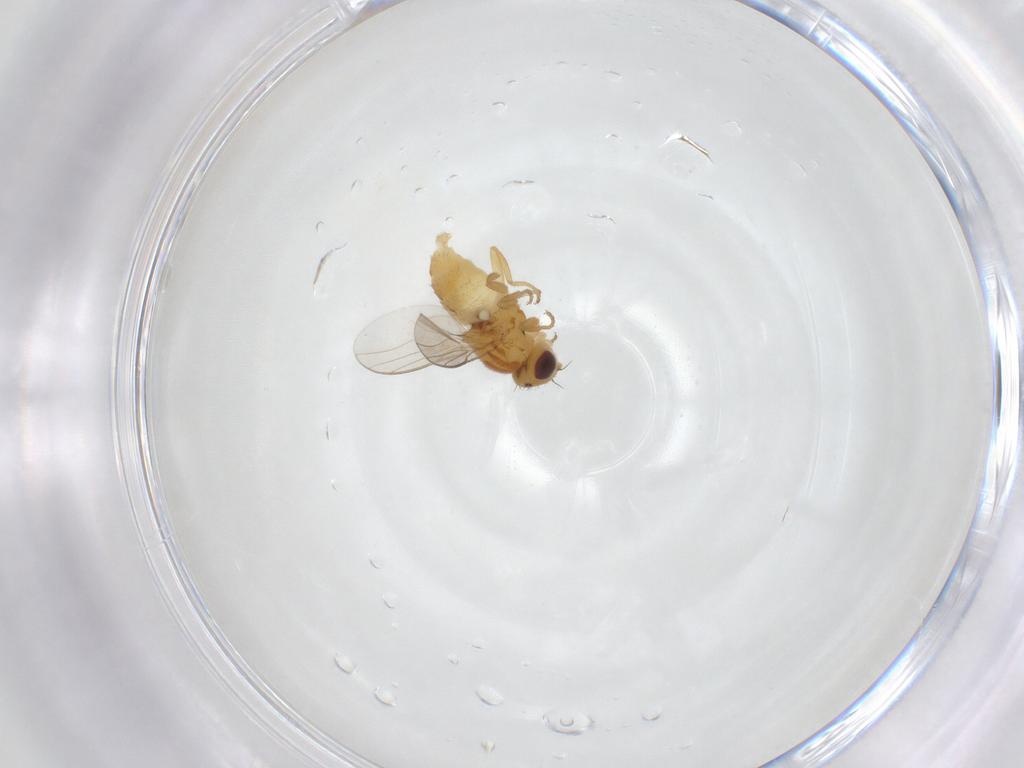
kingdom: Animalia
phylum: Arthropoda
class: Insecta
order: Diptera
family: Chloropidae
